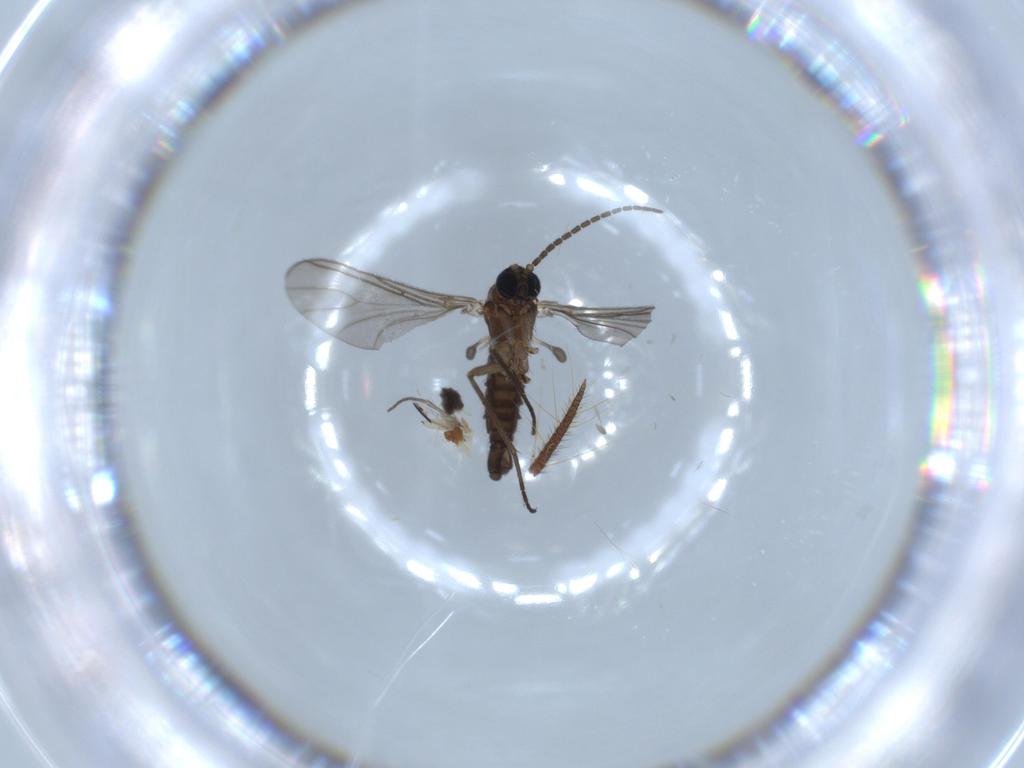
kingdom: Animalia
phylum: Arthropoda
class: Insecta
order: Diptera
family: Sciaridae
